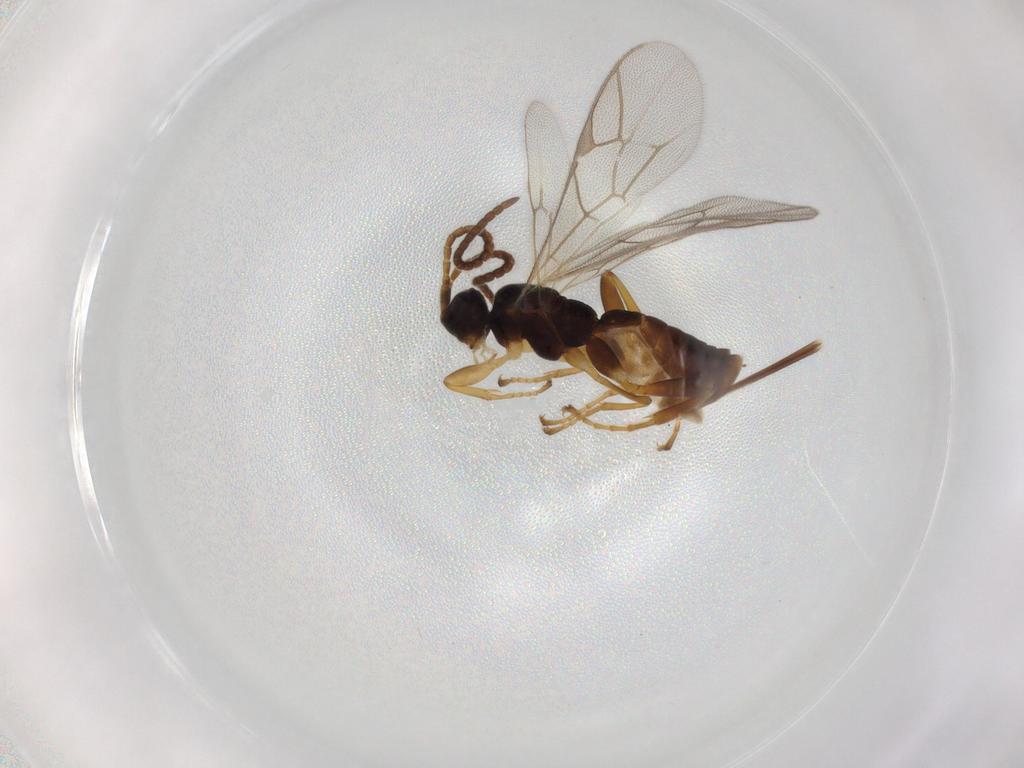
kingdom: Animalia
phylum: Arthropoda
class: Insecta
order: Hymenoptera
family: Ichneumonidae
